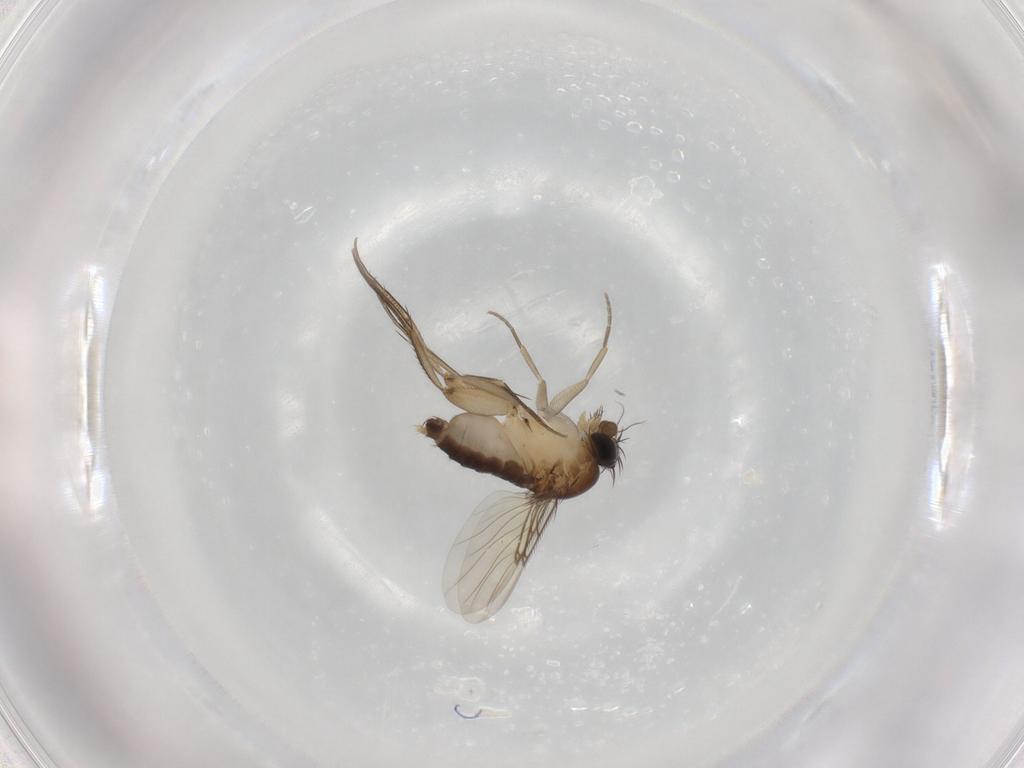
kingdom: Animalia
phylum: Arthropoda
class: Insecta
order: Diptera
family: Phoridae
